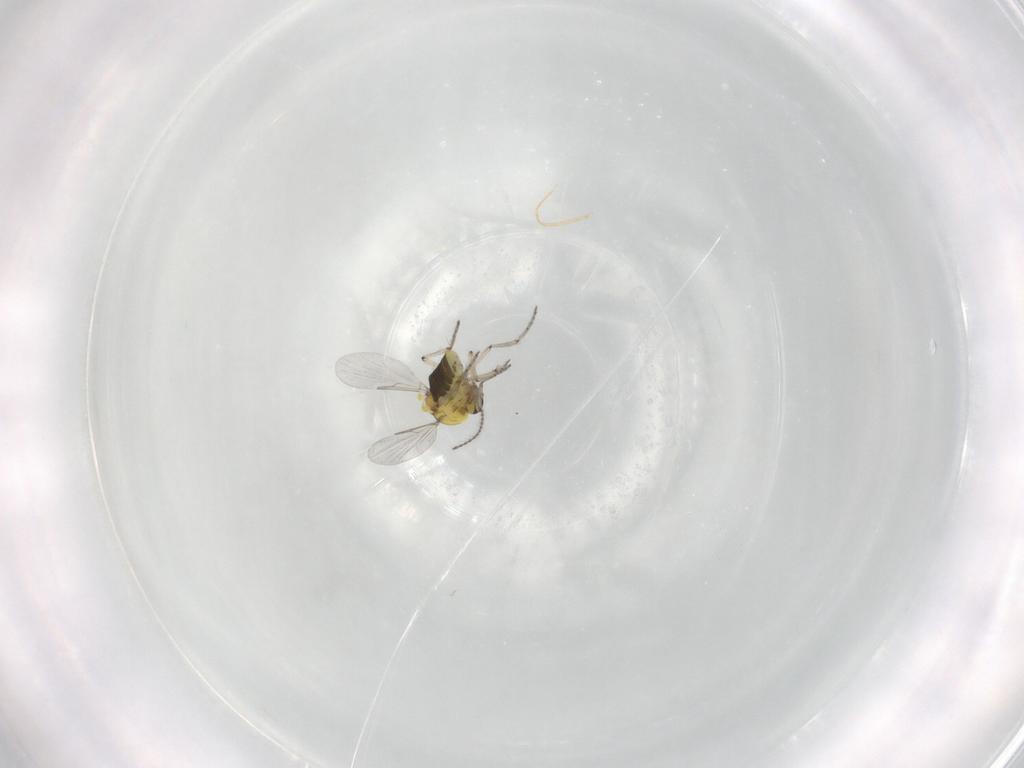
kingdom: Animalia
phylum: Arthropoda
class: Insecta
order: Diptera
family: Ceratopogonidae
